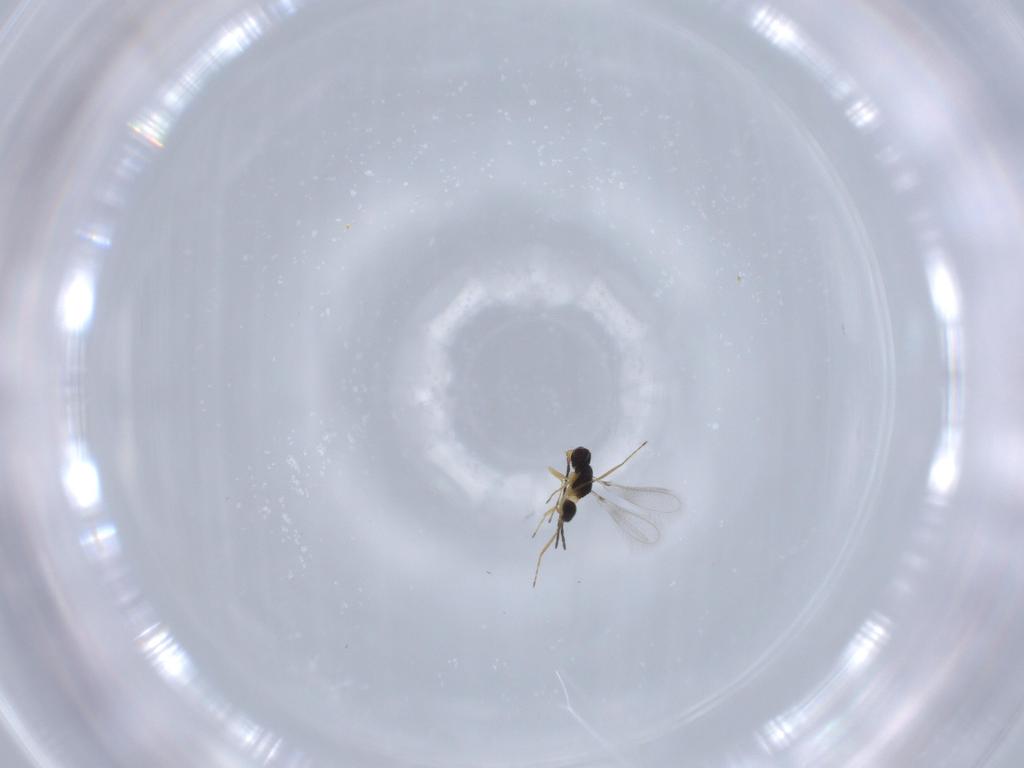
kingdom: Animalia
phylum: Arthropoda
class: Insecta
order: Hymenoptera
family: Mymaridae
